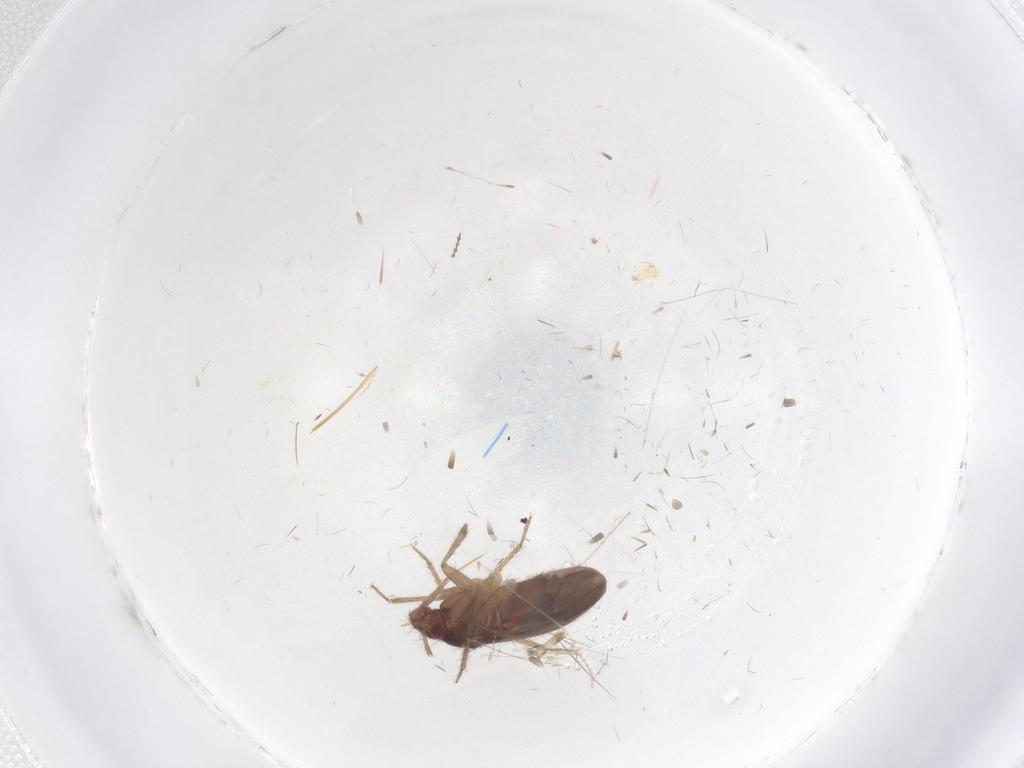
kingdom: Animalia
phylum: Arthropoda
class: Insecta
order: Hemiptera
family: Ceratocombidae
